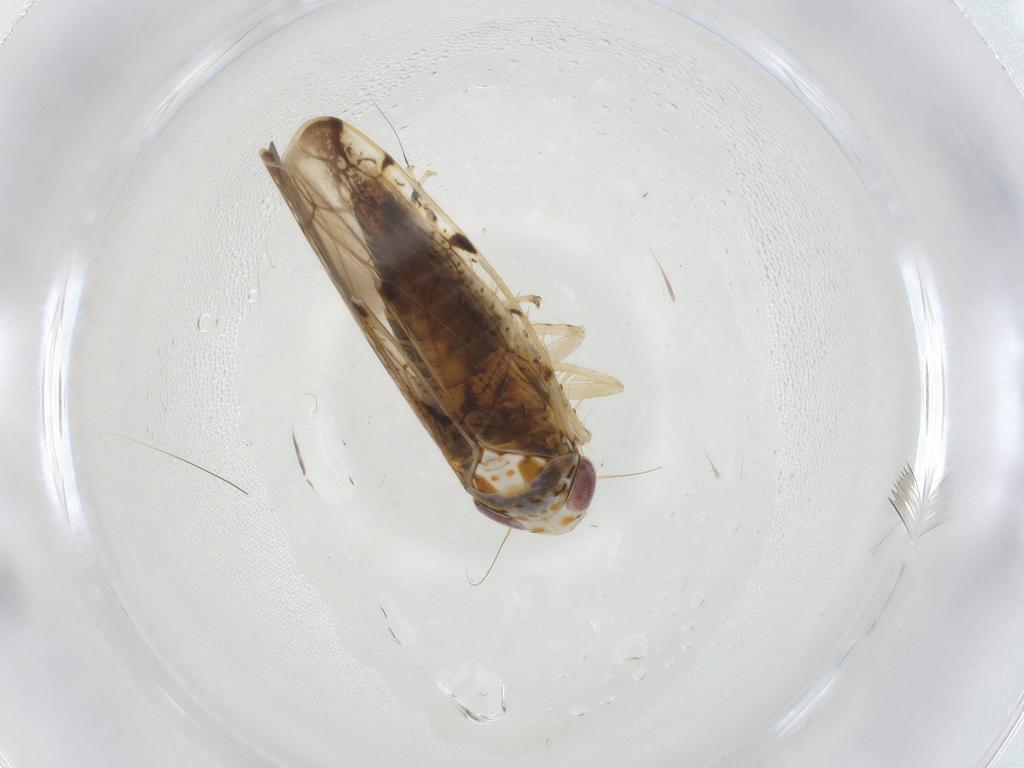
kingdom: Animalia
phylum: Arthropoda
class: Insecta
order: Hemiptera
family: Cicadellidae
